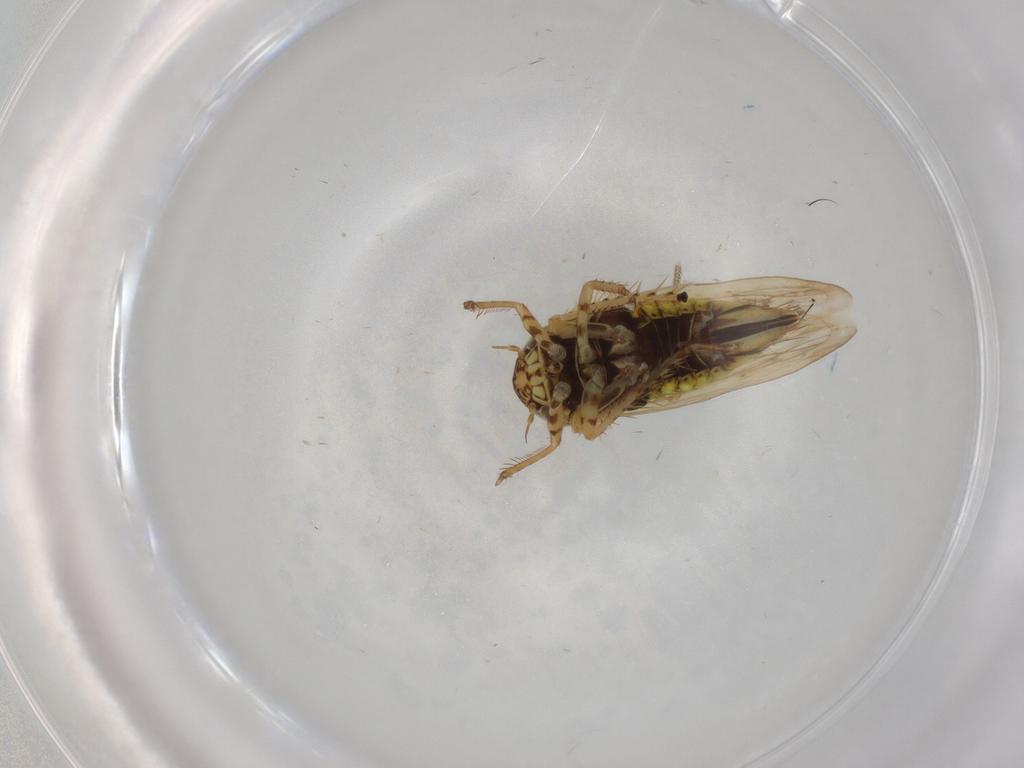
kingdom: Animalia
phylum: Arthropoda
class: Insecta
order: Hemiptera
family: Cicadellidae
